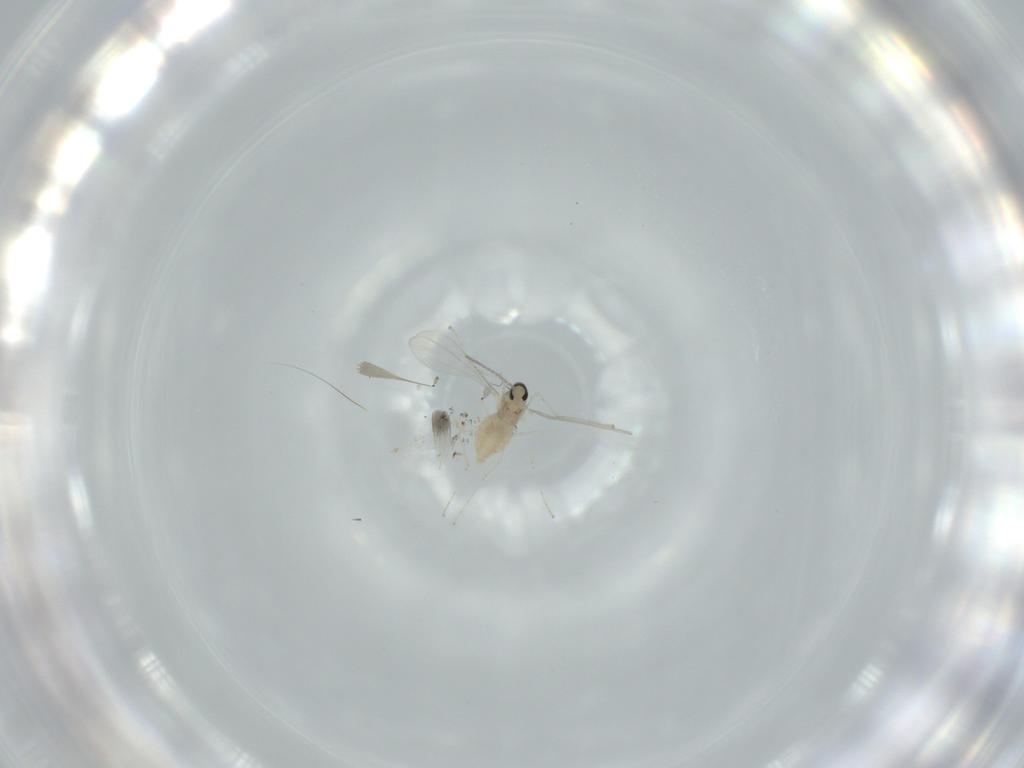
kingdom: Animalia
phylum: Arthropoda
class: Insecta
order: Diptera
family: Cecidomyiidae
